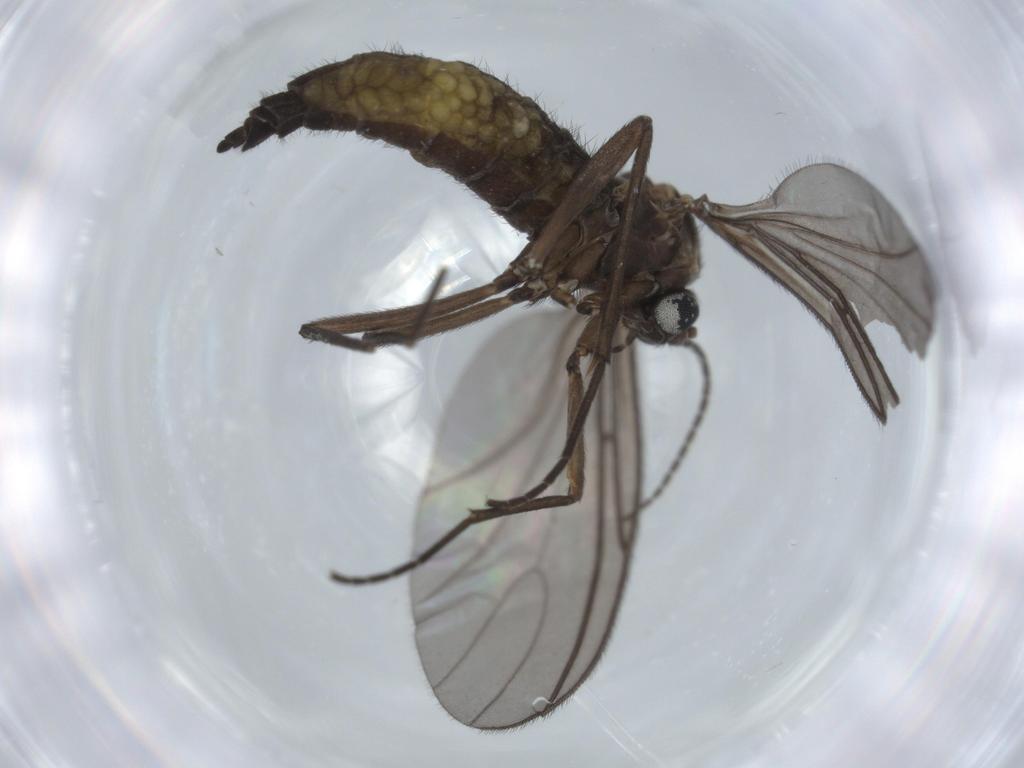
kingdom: Animalia
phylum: Arthropoda
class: Insecta
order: Diptera
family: Sciaridae
